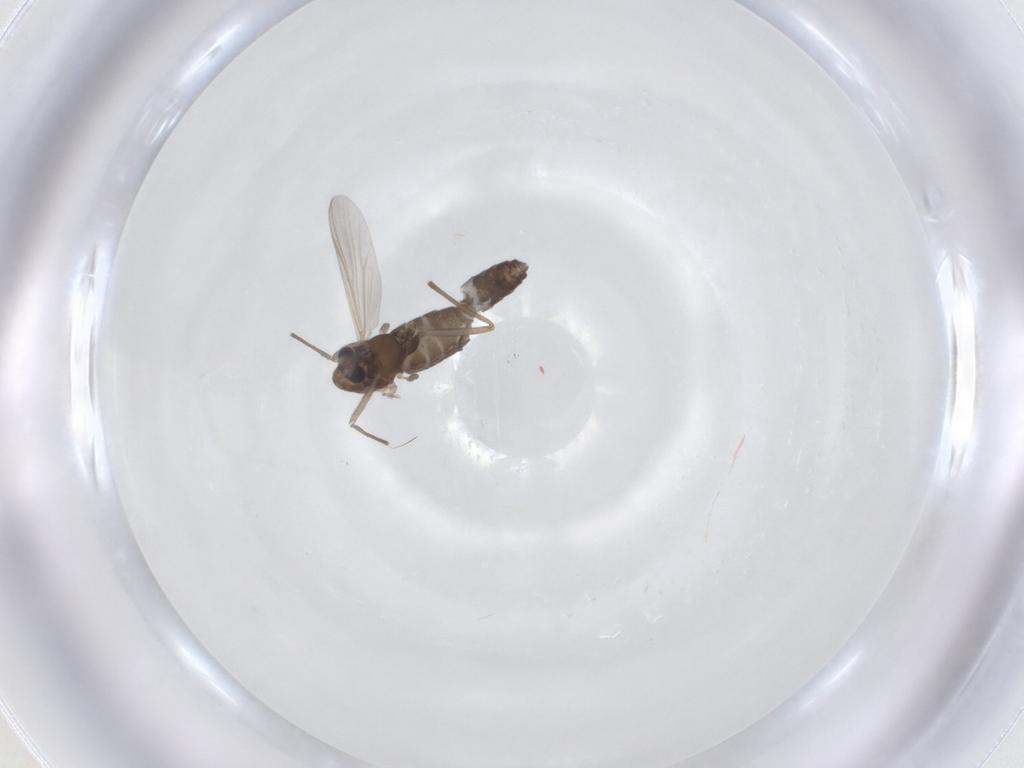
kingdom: Animalia
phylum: Arthropoda
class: Insecta
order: Diptera
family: Chironomidae
